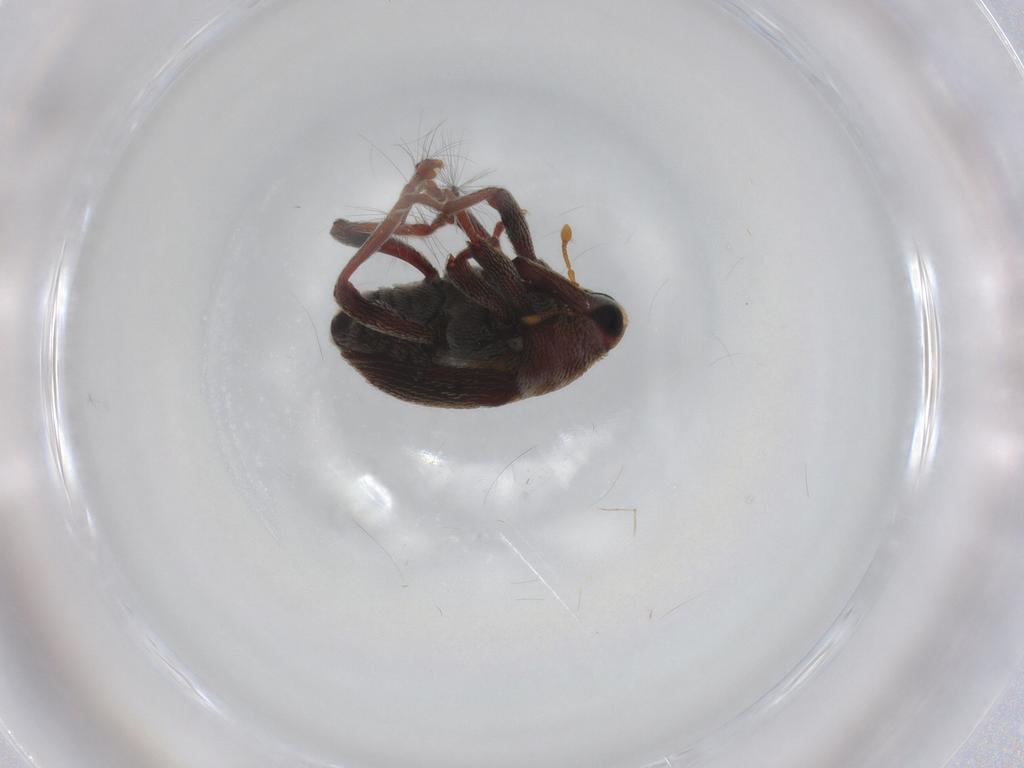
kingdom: Animalia
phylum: Arthropoda
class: Insecta
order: Coleoptera
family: Curculionidae
